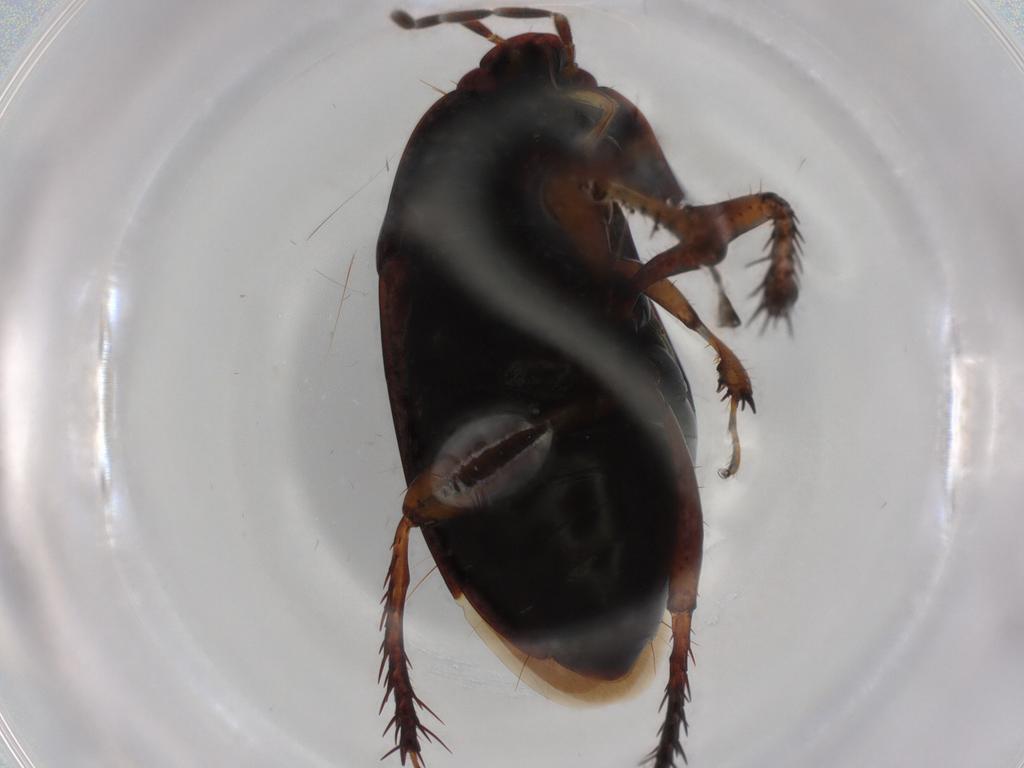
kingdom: Animalia
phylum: Arthropoda
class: Insecta
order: Hemiptera
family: Cydnidae
